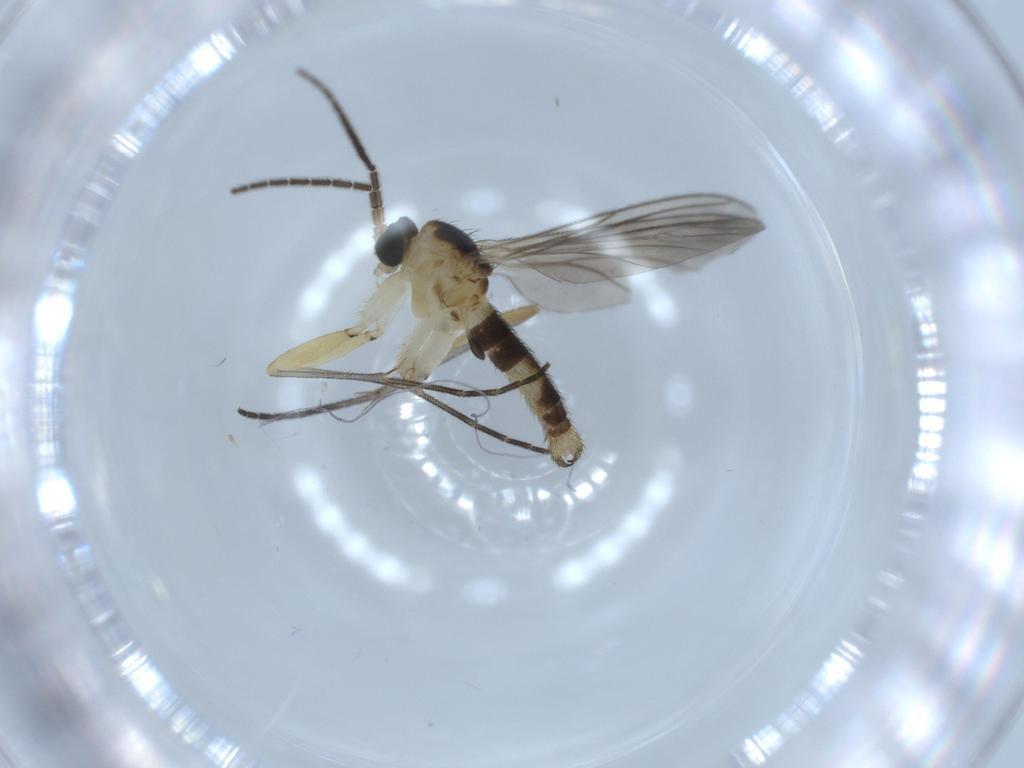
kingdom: Animalia
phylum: Arthropoda
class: Insecta
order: Diptera
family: Sciaridae
